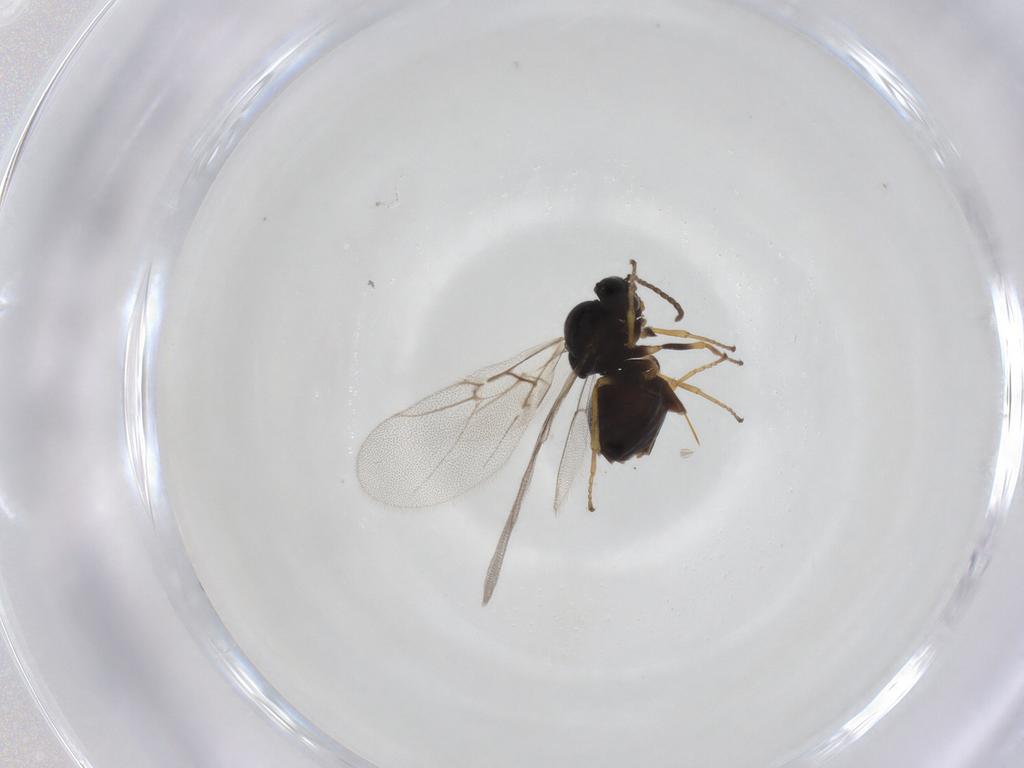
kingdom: Animalia
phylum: Arthropoda
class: Insecta
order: Hymenoptera
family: Cynipidae
